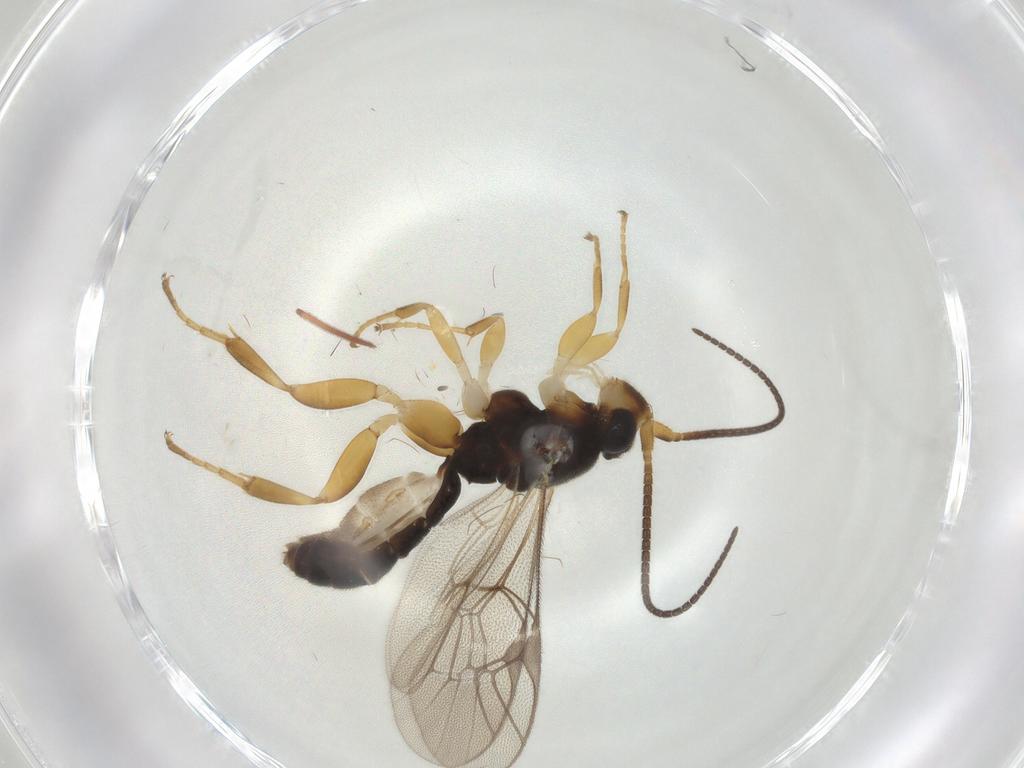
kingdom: Animalia
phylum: Arthropoda
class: Insecta
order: Hymenoptera
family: Ichneumonidae
